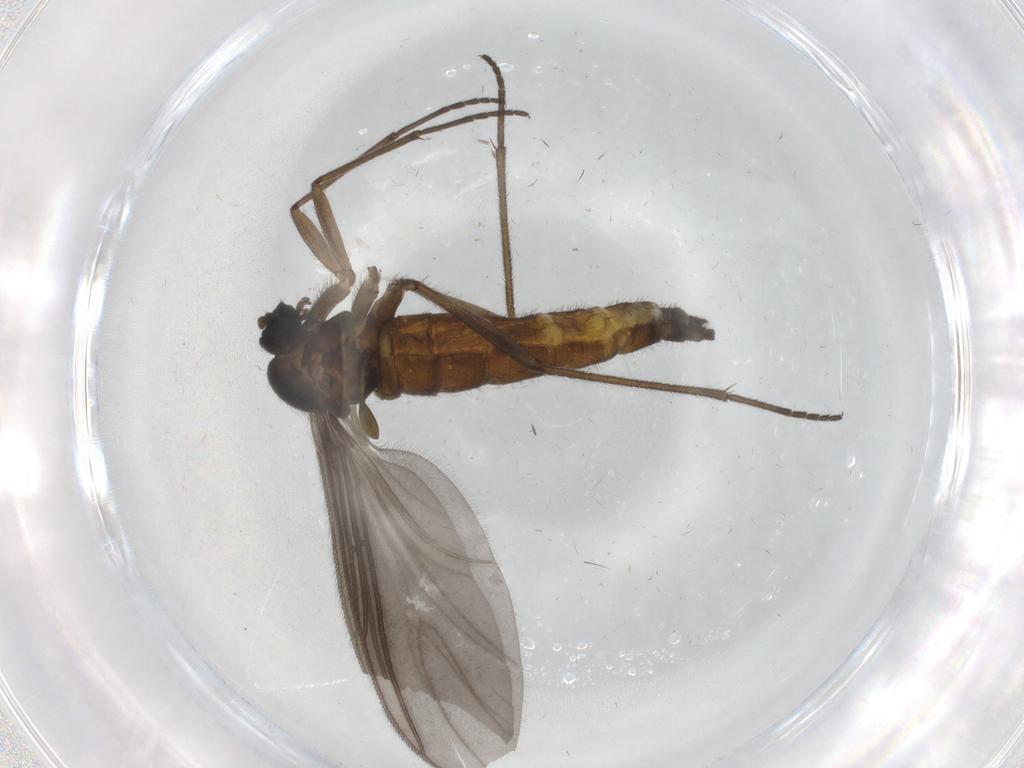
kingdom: Animalia
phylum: Arthropoda
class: Insecta
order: Diptera
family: Sciaridae
